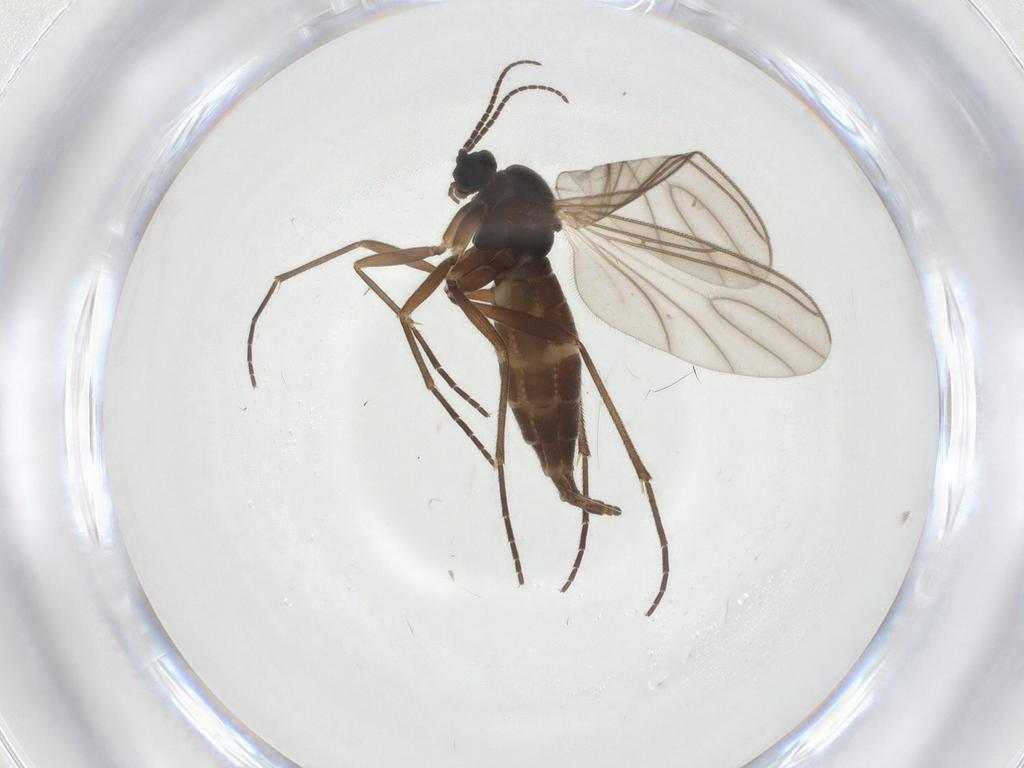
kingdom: Animalia
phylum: Arthropoda
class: Insecta
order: Diptera
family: Sciaridae
